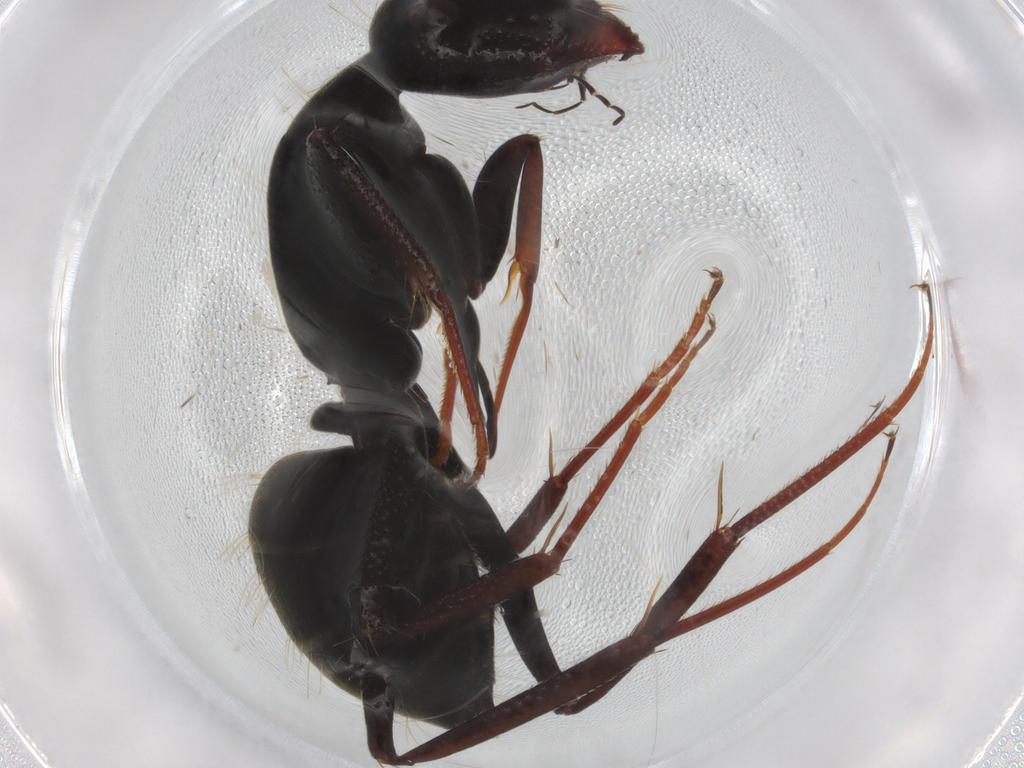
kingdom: Animalia
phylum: Arthropoda
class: Insecta
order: Hymenoptera
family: Formicidae
